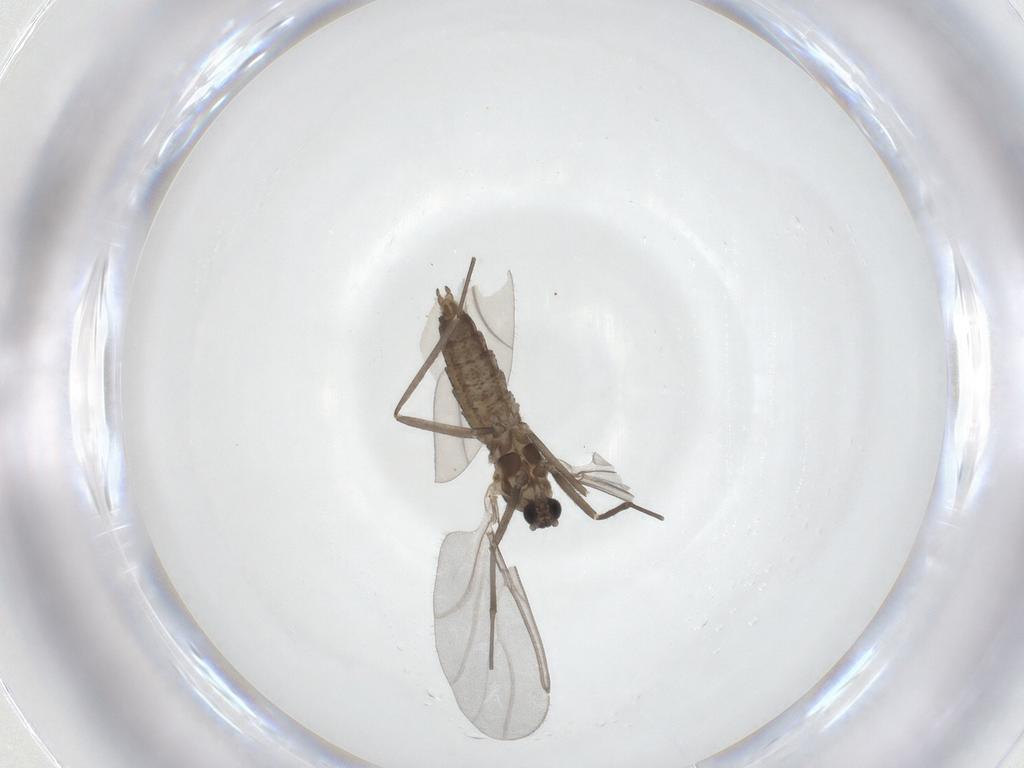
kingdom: Animalia
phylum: Arthropoda
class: Insecta
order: Diptera
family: Cecidomyiidae
